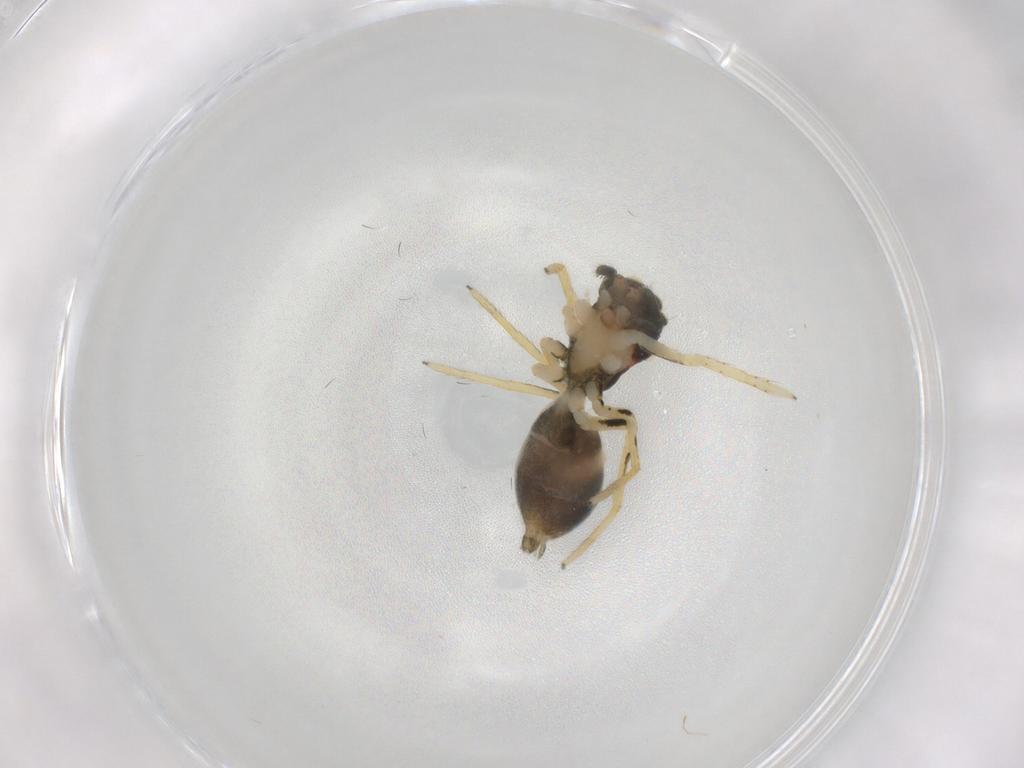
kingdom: Animalia
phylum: Arthropoda
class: Arachnida
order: Araneae
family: Salticidae
